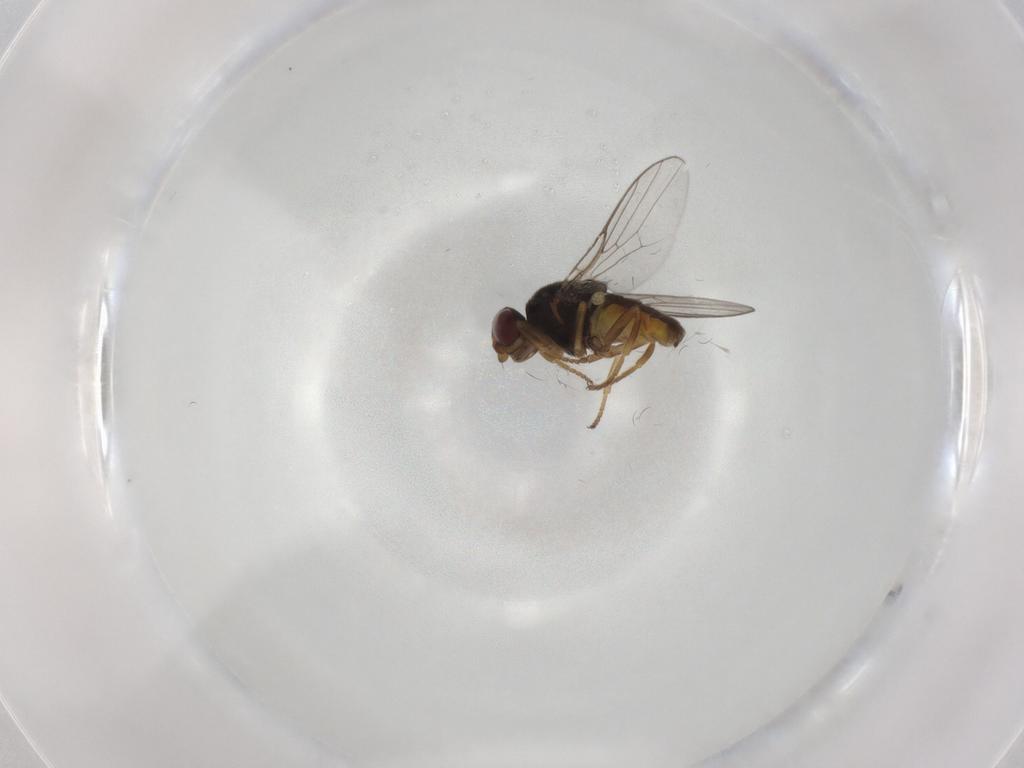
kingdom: Animalia
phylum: Arthropoda
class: Insecta
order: Diptera
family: Chloropidae
